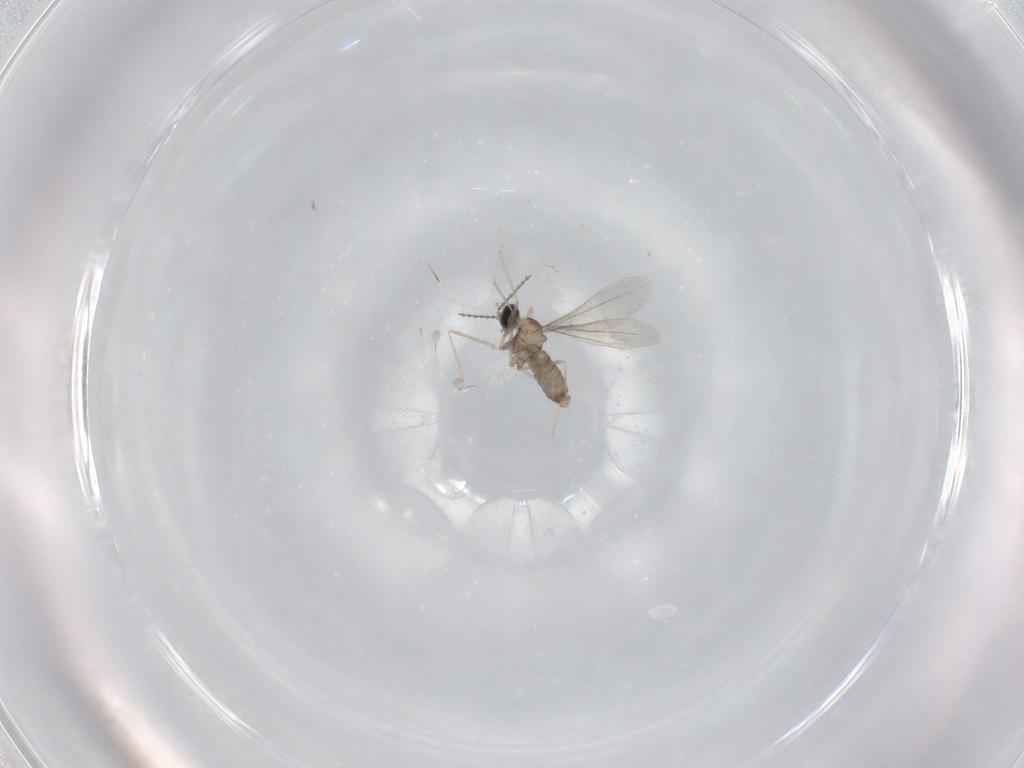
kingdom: Animalia
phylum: Arthropoda
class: Insecta
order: Diptera
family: Cecidomyiidae
